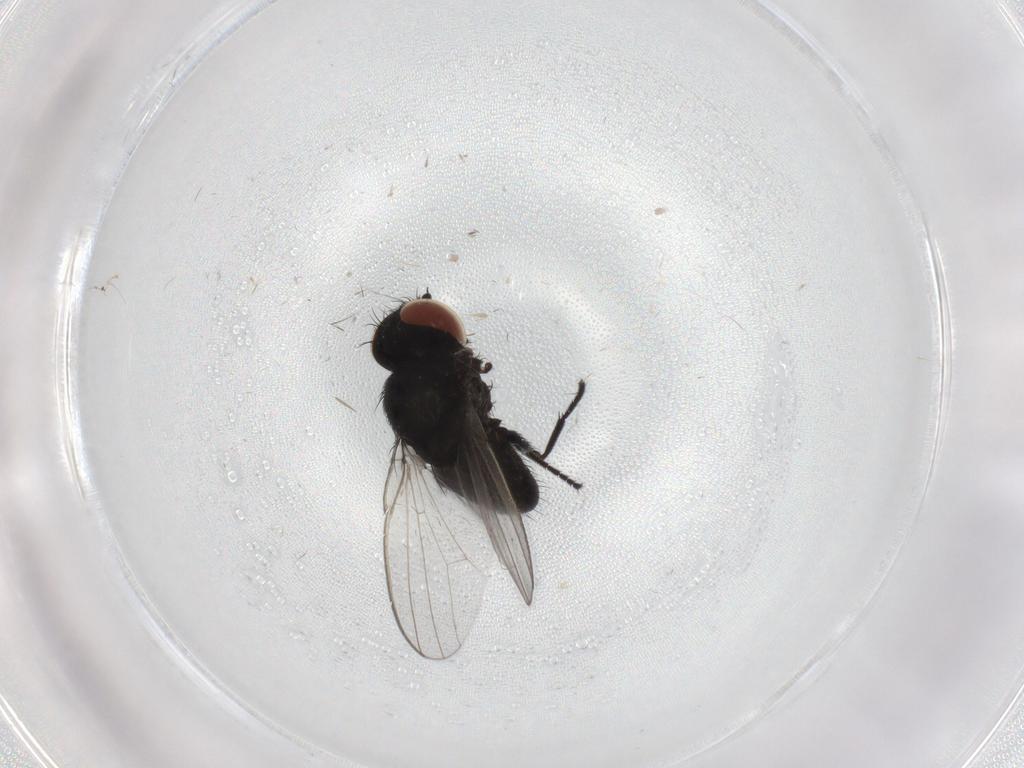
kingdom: Animalia
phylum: Arthropoda
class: Insecta
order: Diptera
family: Milichiidae
